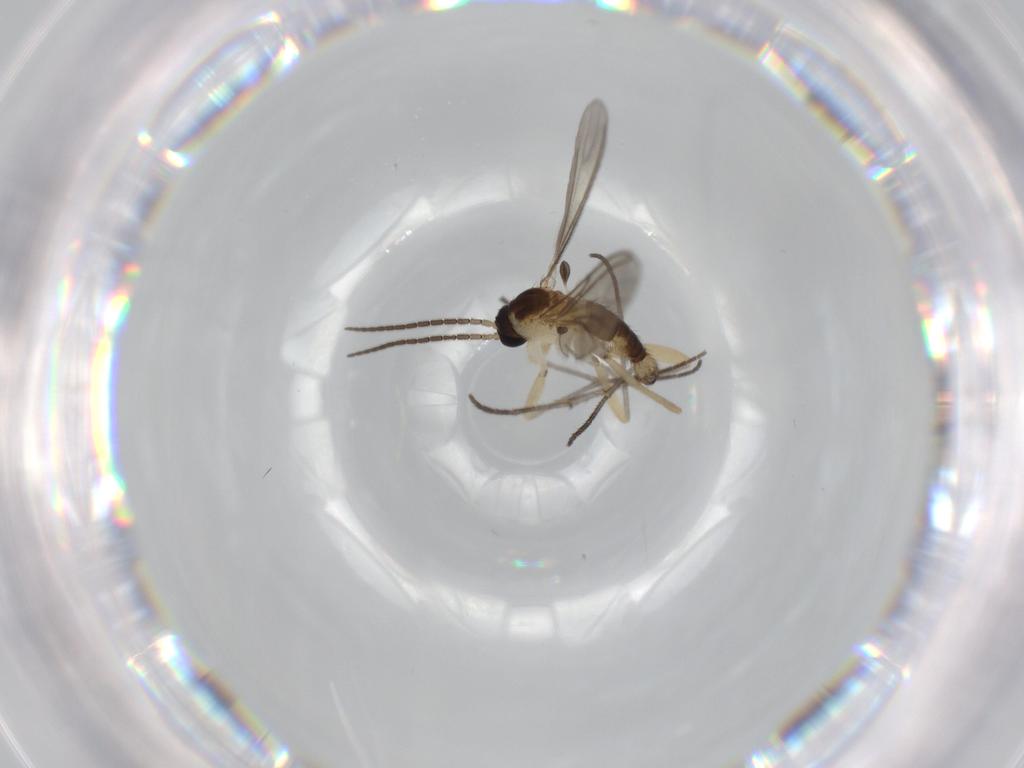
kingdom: Animalia
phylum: Arthropoda
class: Insecta
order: Diptera
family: Sciaridae
